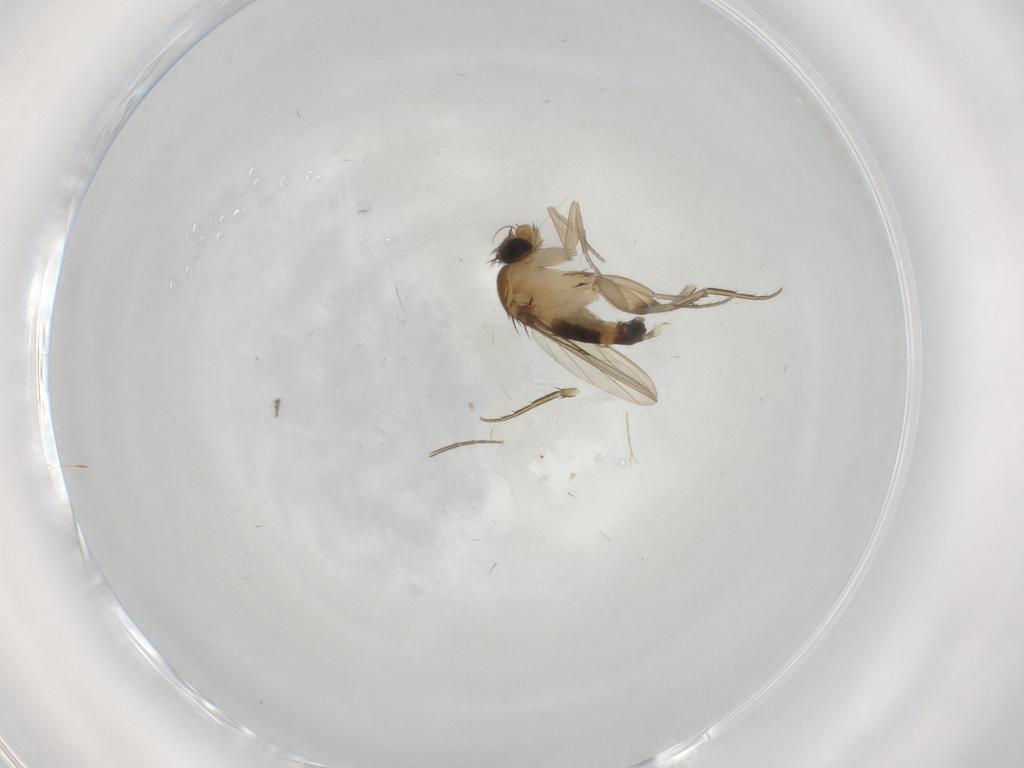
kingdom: Animalia
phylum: Arthropoda
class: Insecta
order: Diptera
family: Phoridae
